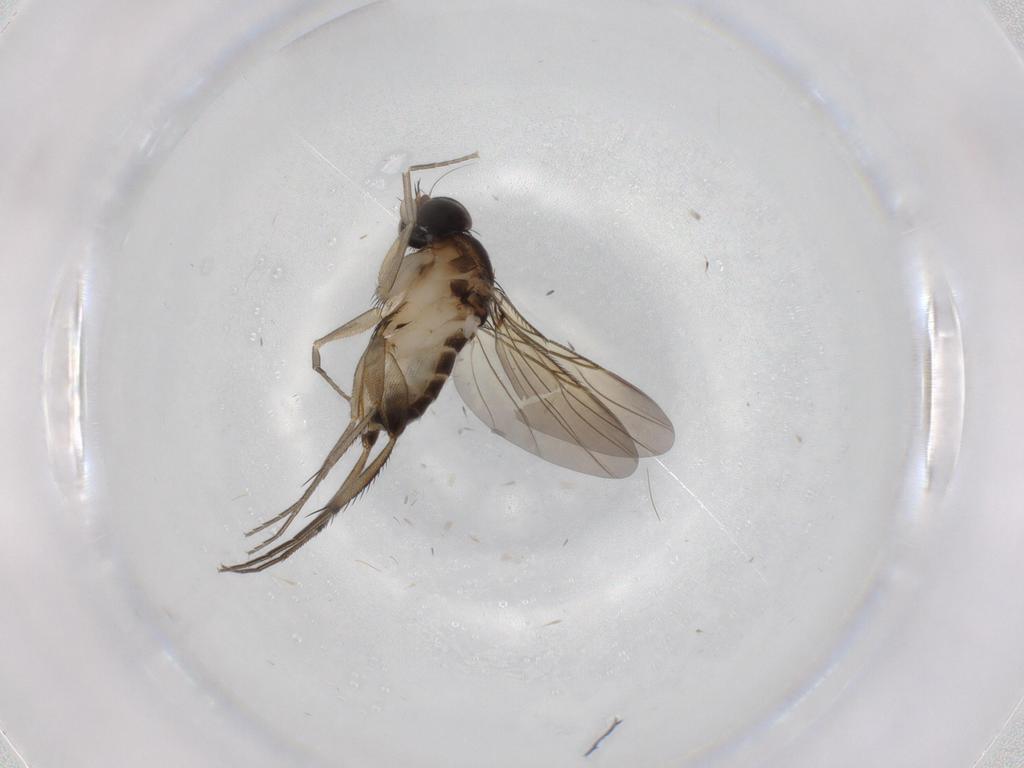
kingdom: Animalia
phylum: Arthropoda
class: Insecta
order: Diptera
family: Phoridae
